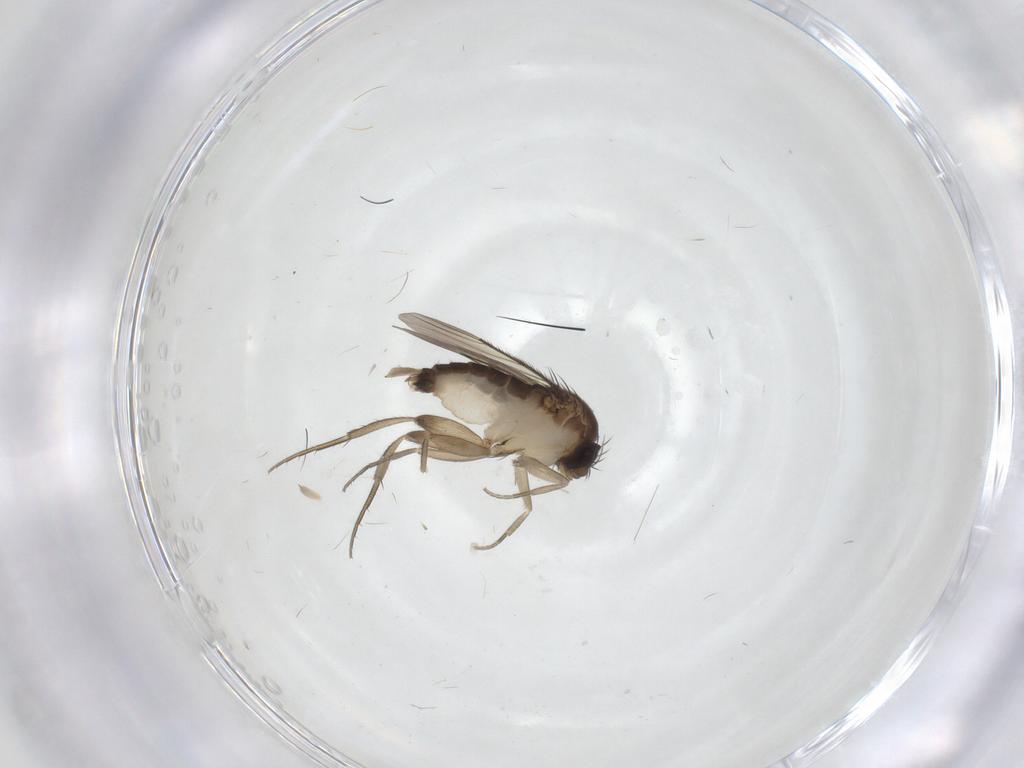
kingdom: Animalia
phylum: Arthropoda
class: Insecta
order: Diptera
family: Phoridae
